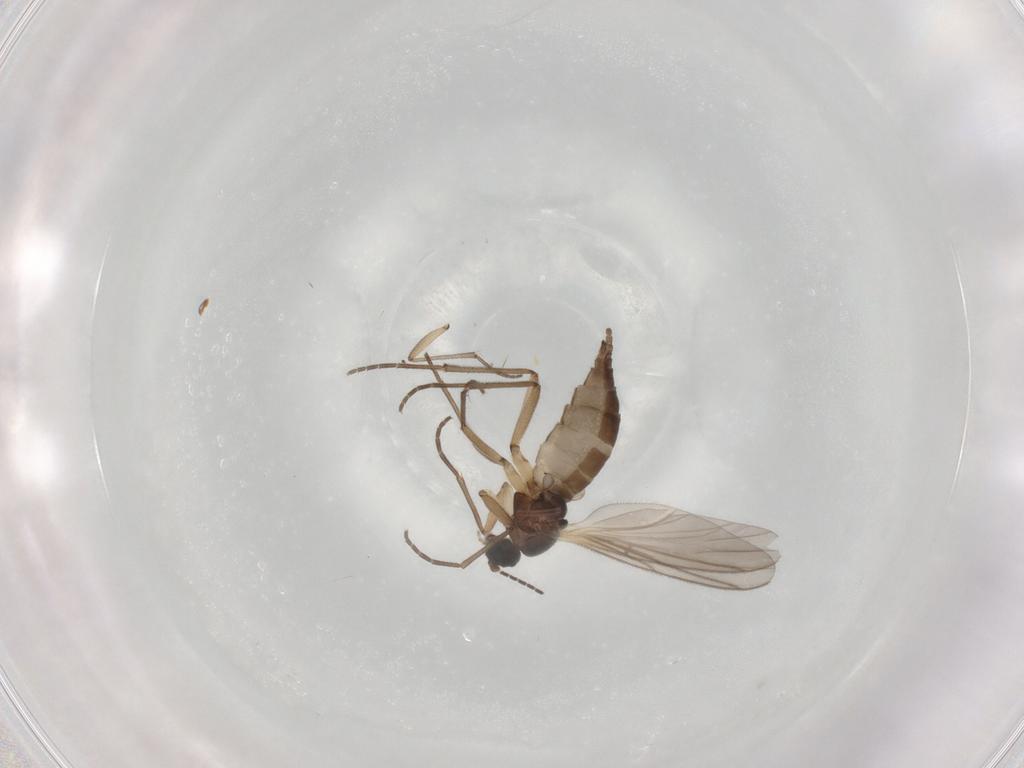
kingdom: Animalia
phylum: Arthropoda
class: Insecta
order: Diptera
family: Sciaridae
